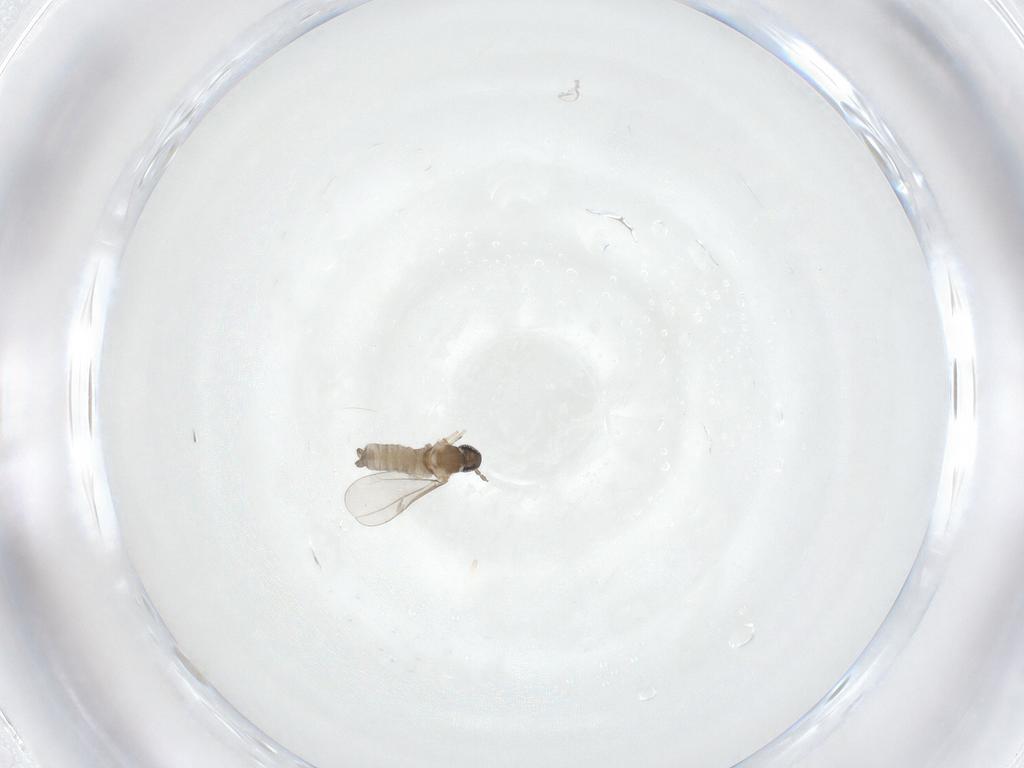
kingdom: Animalia
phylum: Arthropoda
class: Insecta
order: Diptera
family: Cecidomyiidae
